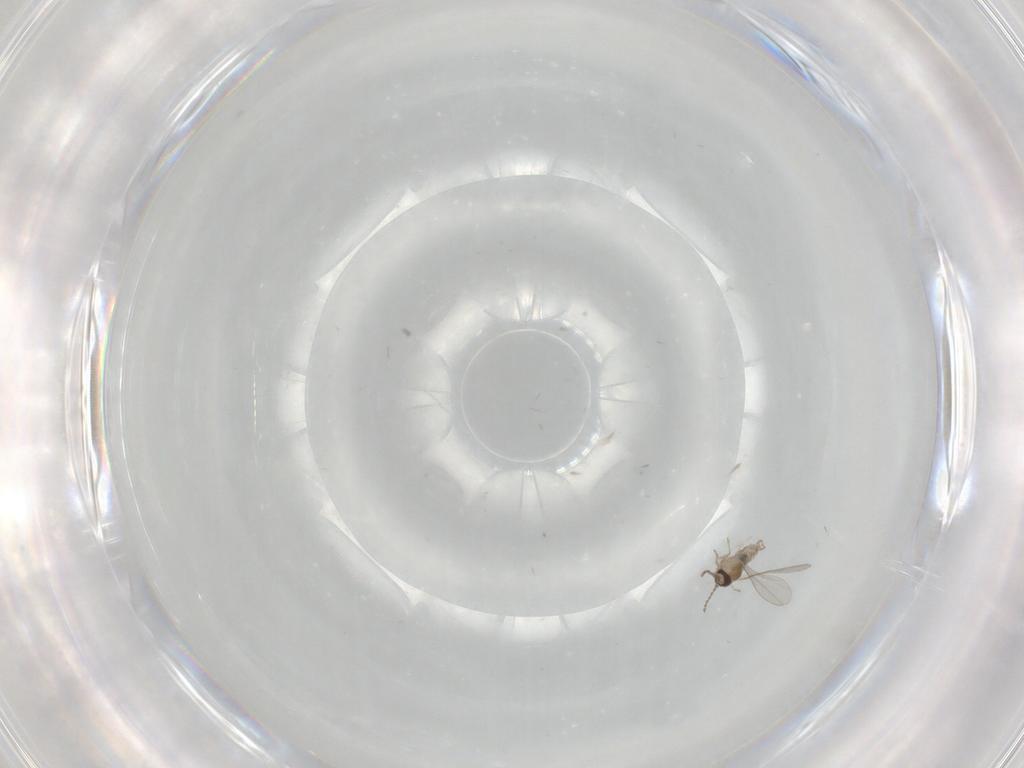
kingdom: Animalia
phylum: Arthropoda
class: Insecta
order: Diptera
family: Cecidomyiidae
